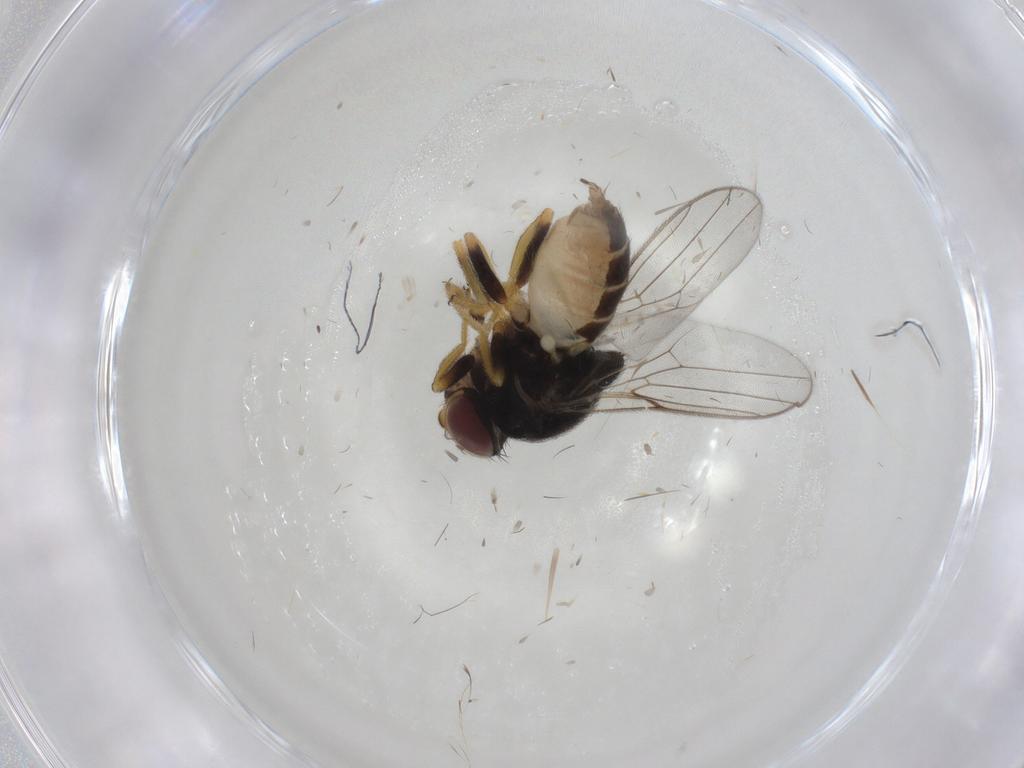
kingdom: Animalia
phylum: Arthropoda
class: Insecta
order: Diptera
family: Chloropidae
